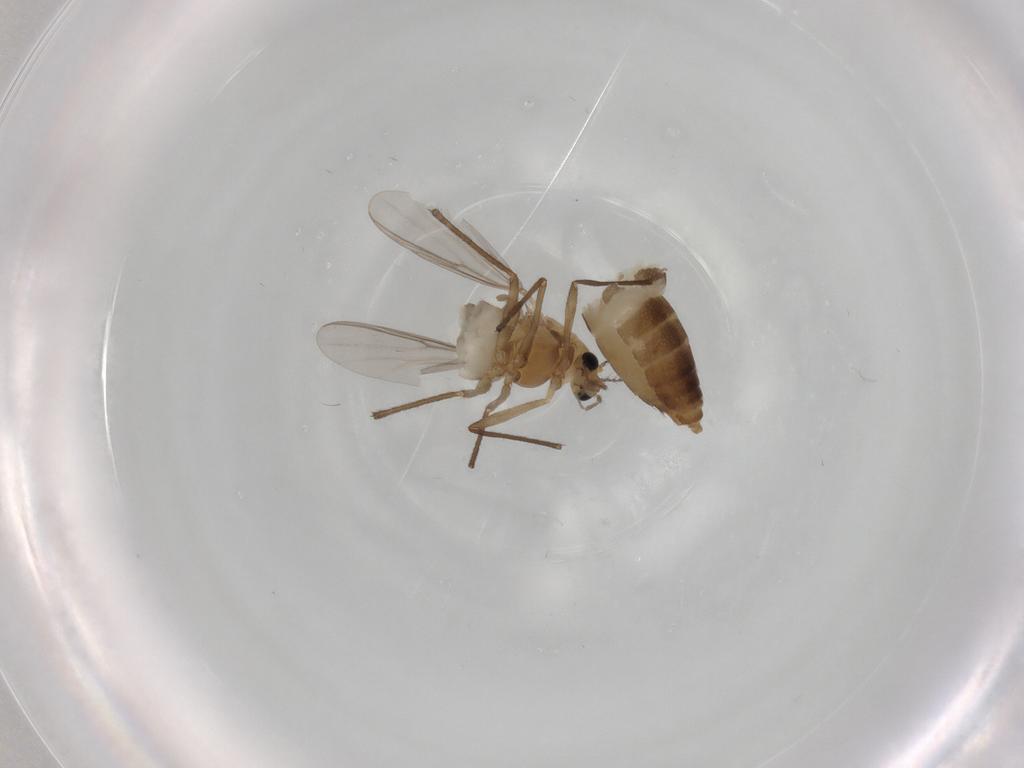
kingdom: Animalia
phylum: Arthropoda
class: Insecta
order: Diptera
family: Chironomidae
